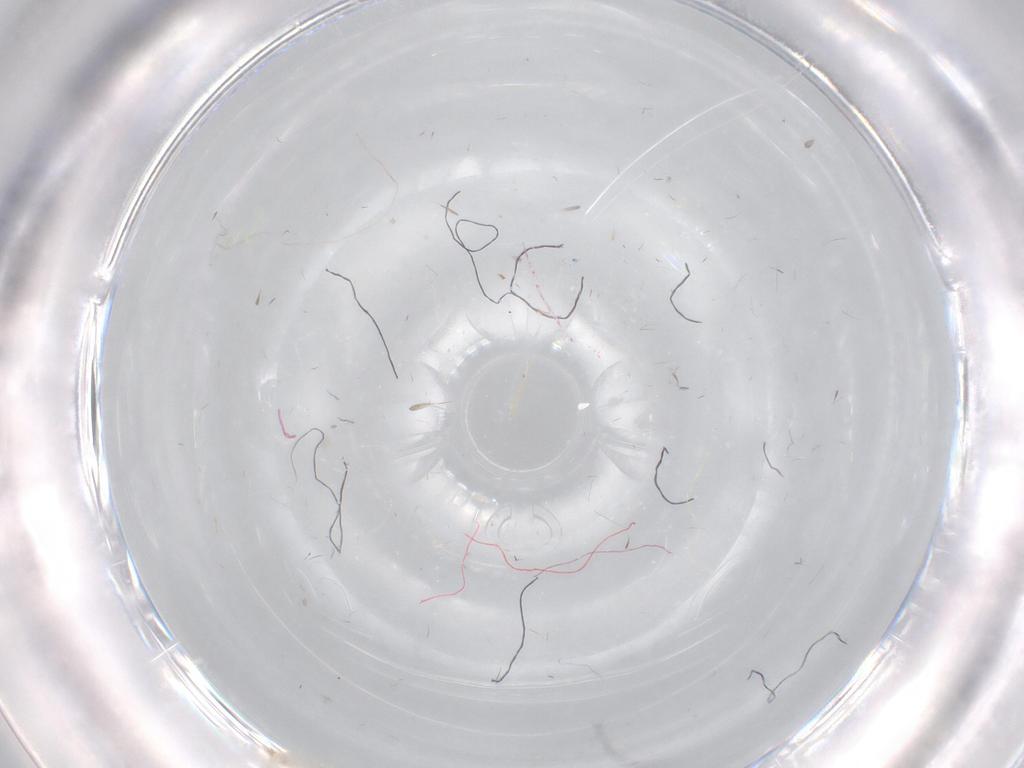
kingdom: Animalia
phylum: Arthropoda
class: Insecta
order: Coleoptera
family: Silvanidae
